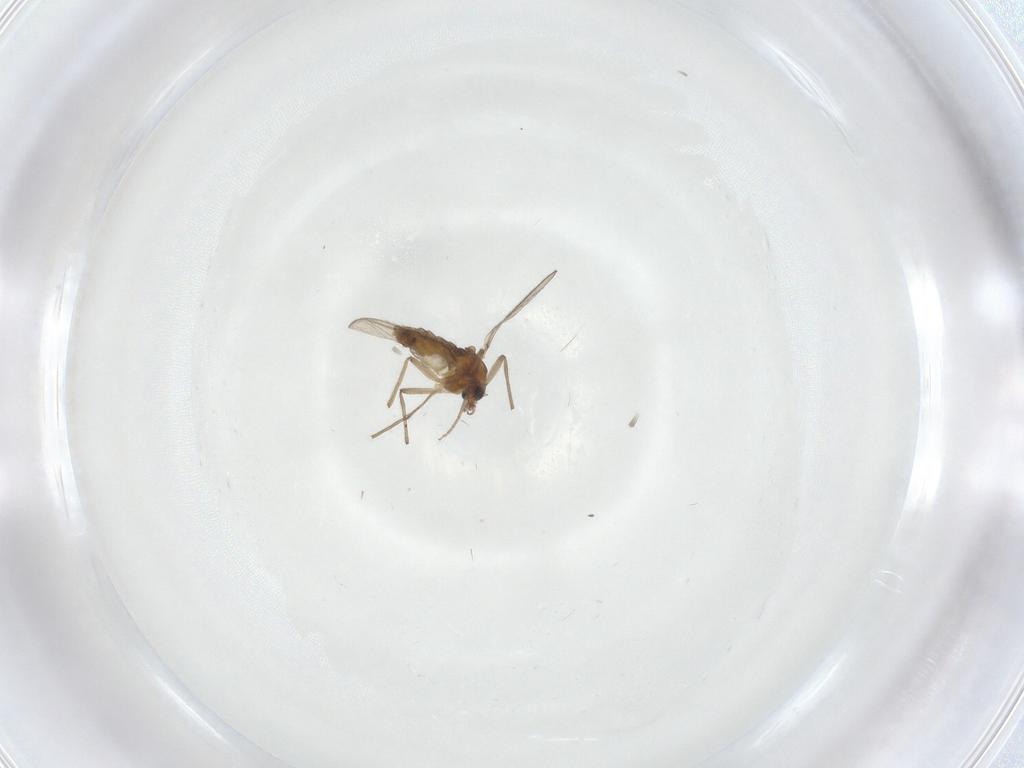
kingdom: Animalia
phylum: Arthropoda
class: Insecta
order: Diptera
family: Chironomidae
